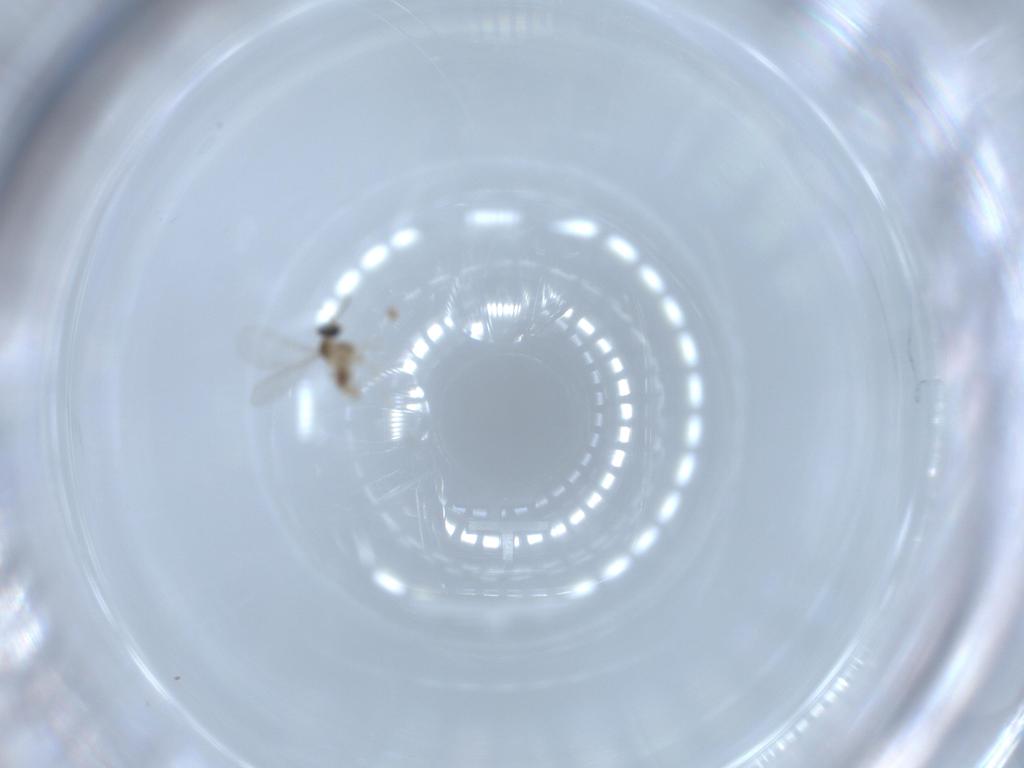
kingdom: Animalia
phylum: Arthropoda
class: Insecta
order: Diptera
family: Cecidomyiidae
